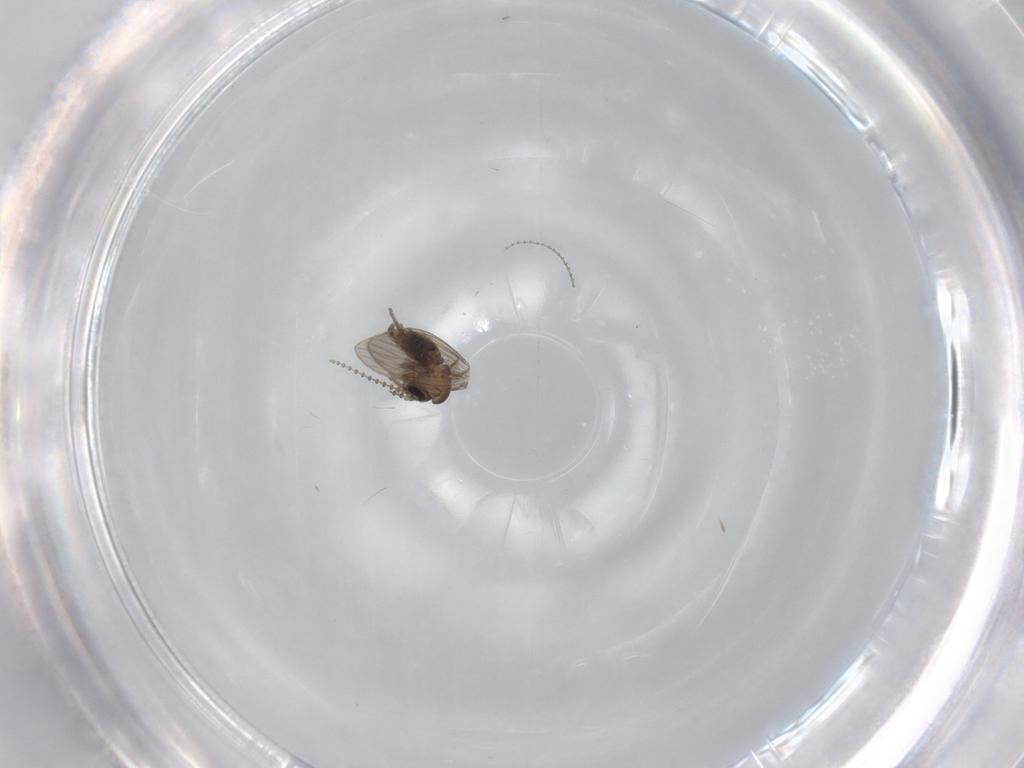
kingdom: Animalia
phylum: Arthropoda
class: Insecta
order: Diptera
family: Psychodidae
